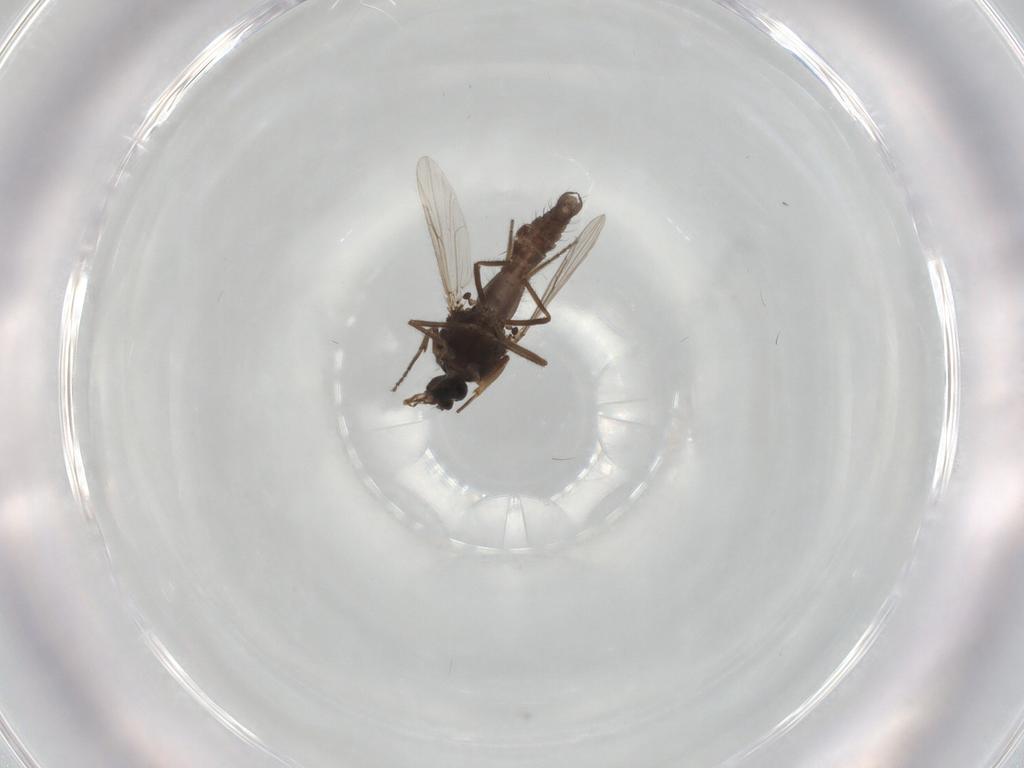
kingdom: Animalia
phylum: Arthropoda
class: Insecta
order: Diptera
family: Ceratopogonidae
